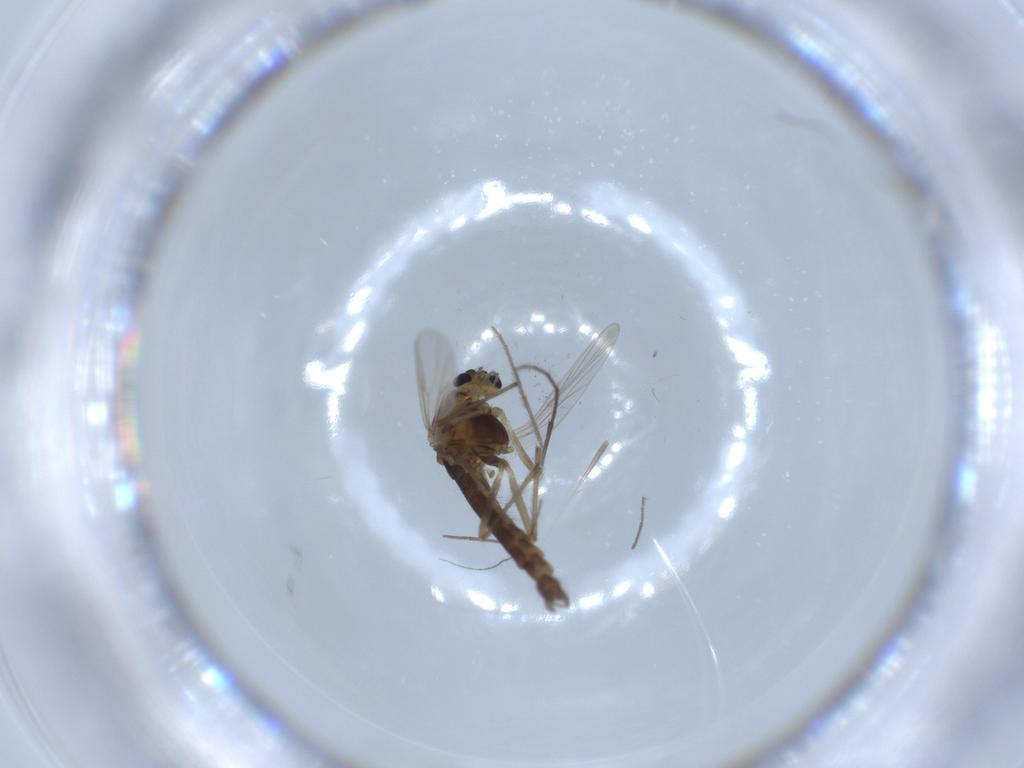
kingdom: Animalia
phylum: Arthropoda
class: Insecta
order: Diptera
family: Chironomidae
